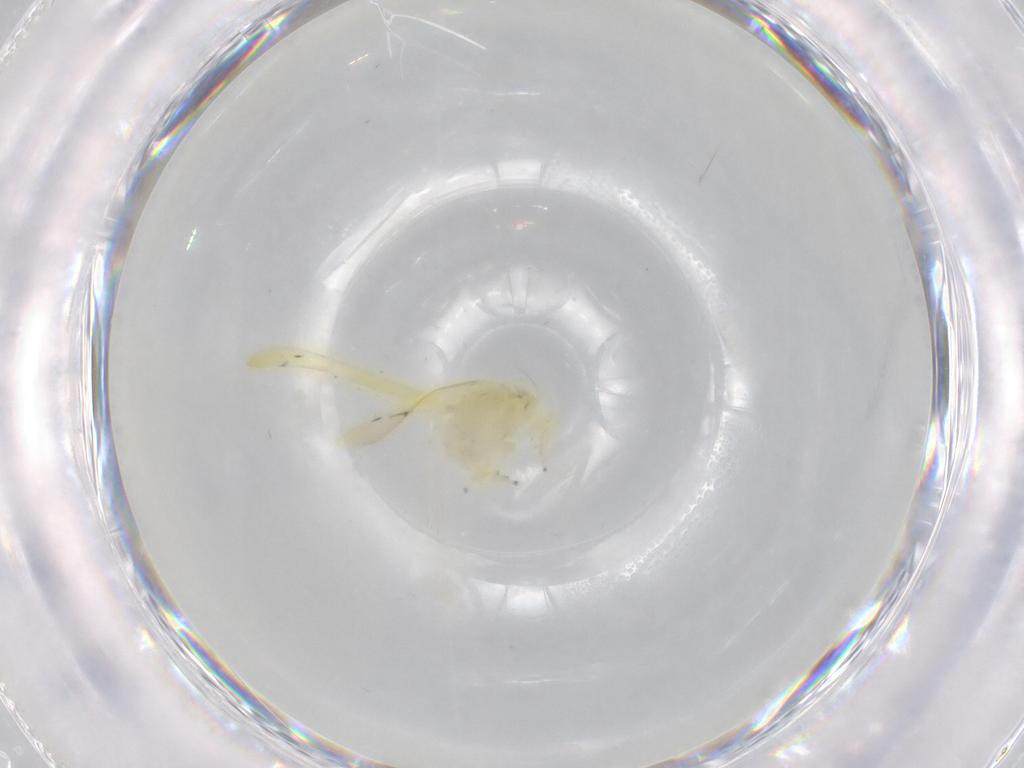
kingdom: Animalia
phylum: Arthropoda
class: Insecta
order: Hemiptera
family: Cicadellidae
